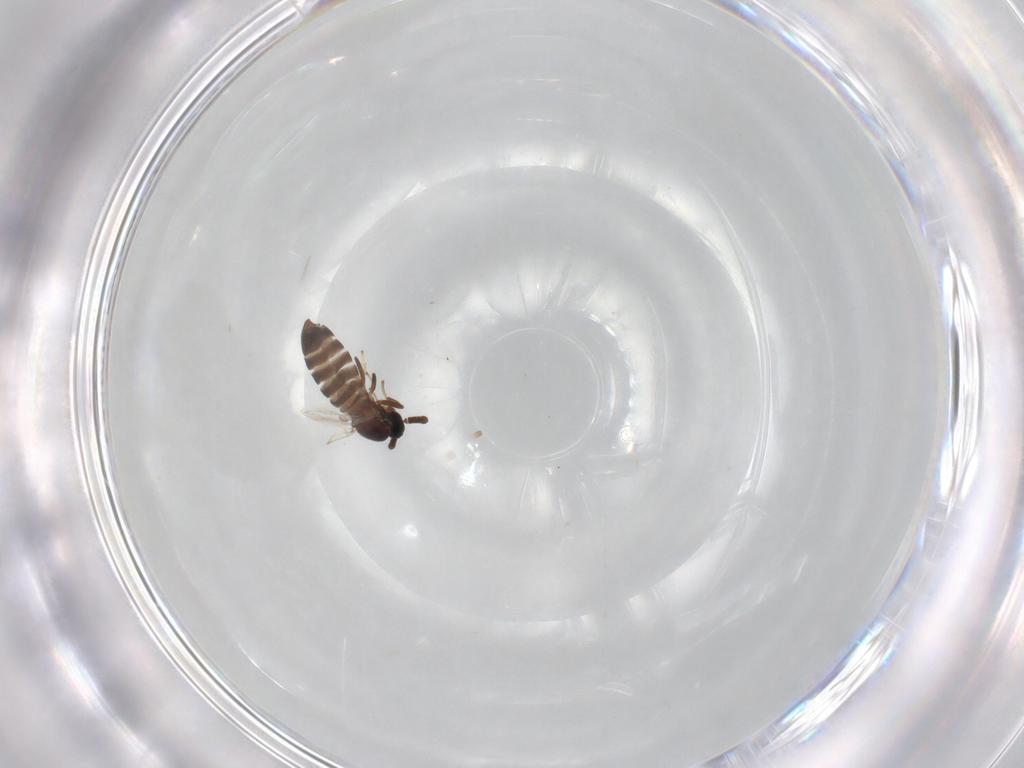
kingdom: Animalia
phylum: Arthropoda
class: Insecta
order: Diptera
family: Scatopsidae
